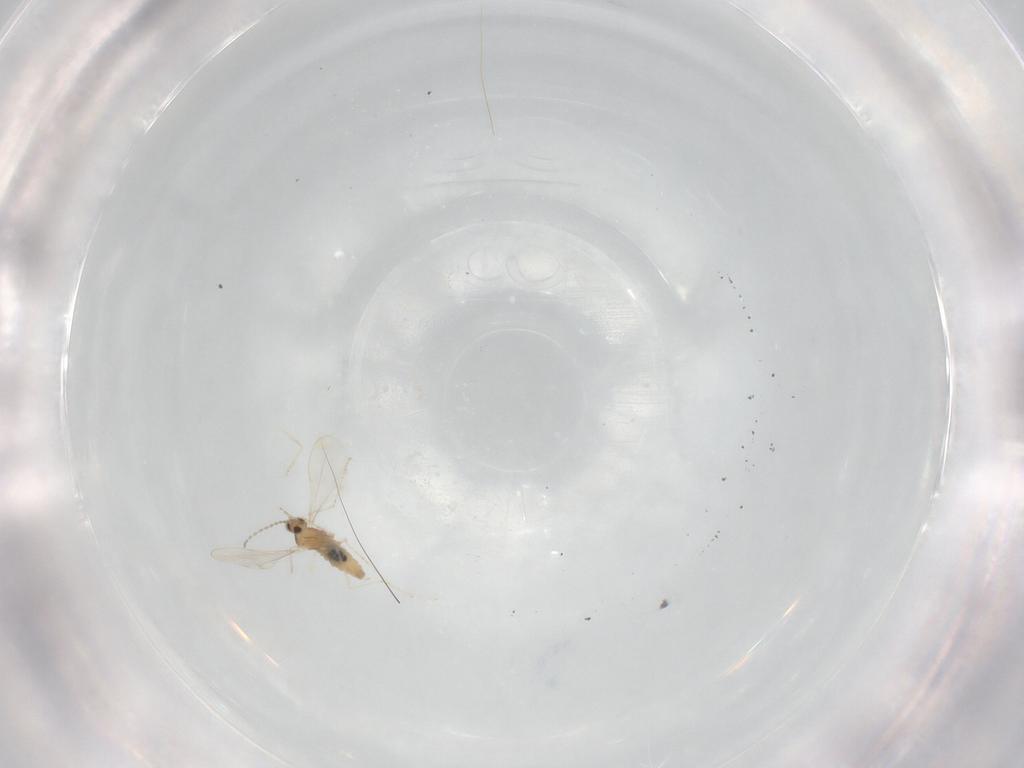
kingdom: Animalia
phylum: Arthropoda
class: Insecta
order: Diptera
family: Cecidomyiidae
